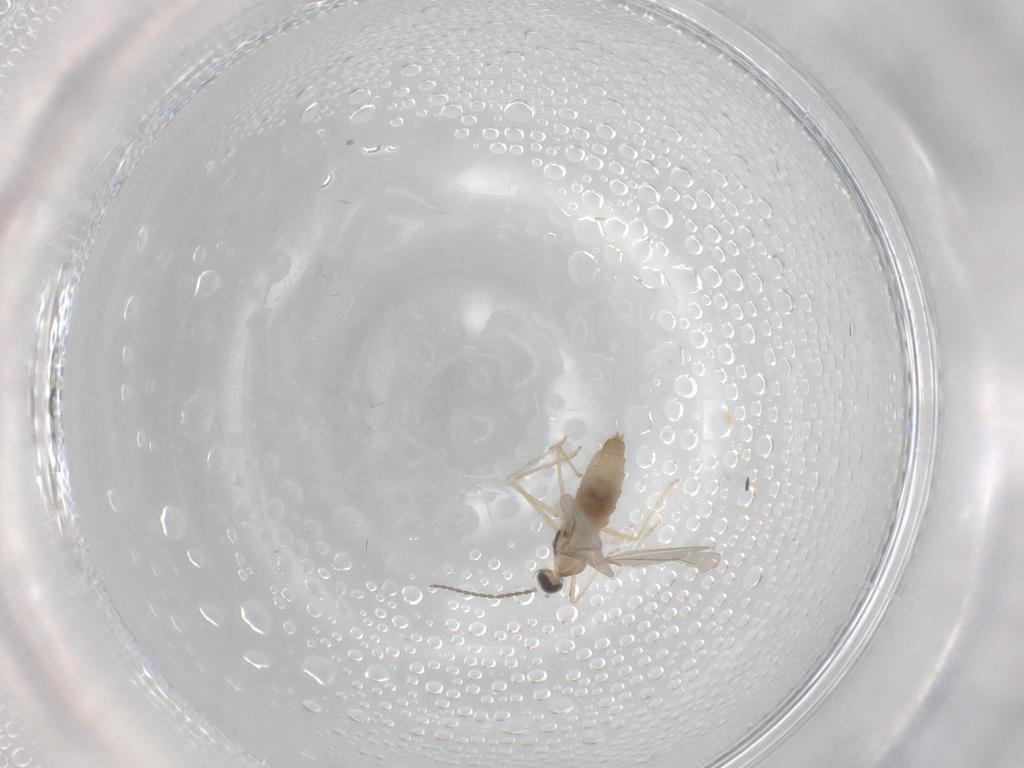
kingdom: Animalia
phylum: Arthropoda
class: Insecta
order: Diptera
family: Cecidomyiidae
